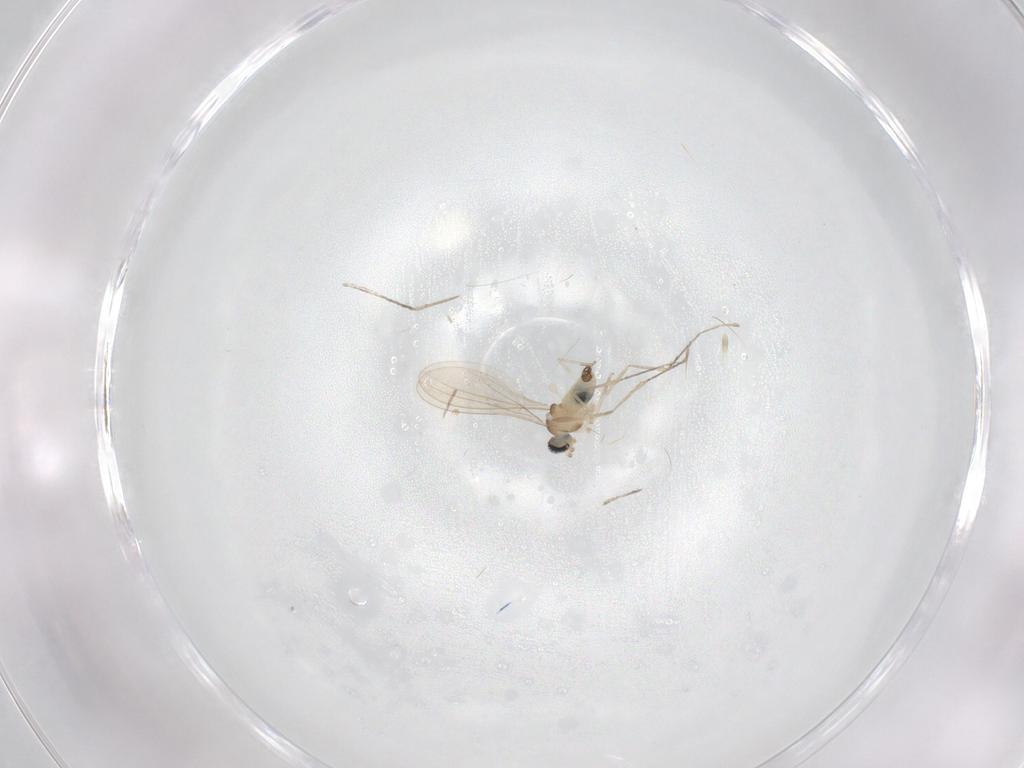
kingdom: Animalia
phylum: Arthropoda
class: Insecta
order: Diptera
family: Cecidomyiidae
